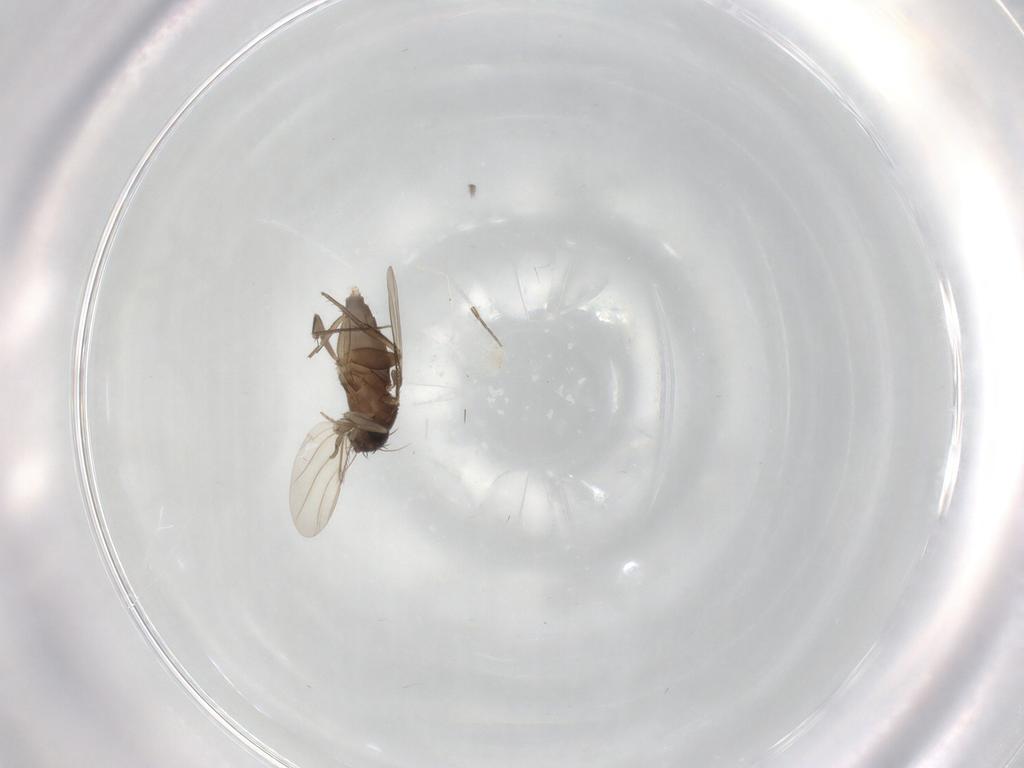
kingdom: Animalia
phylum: Arthropoda
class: Insecta
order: Diptera
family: Phoridae
